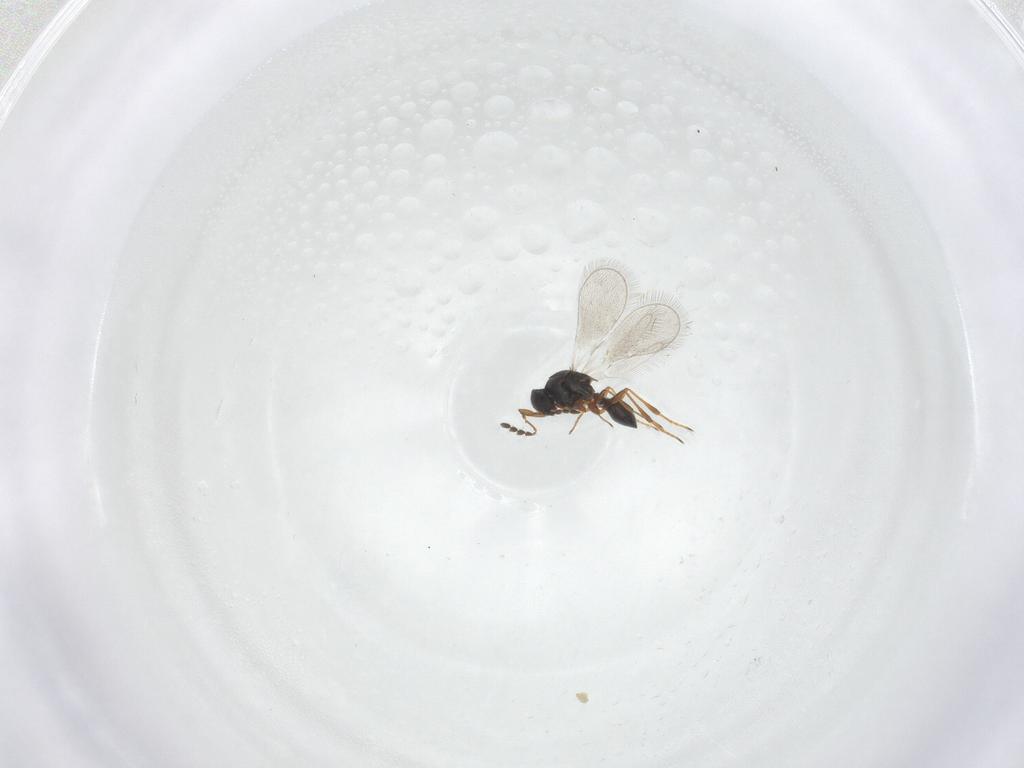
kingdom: Animalia
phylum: Arthropoda
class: Insecta
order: Hymenoptera
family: Platygastridae
